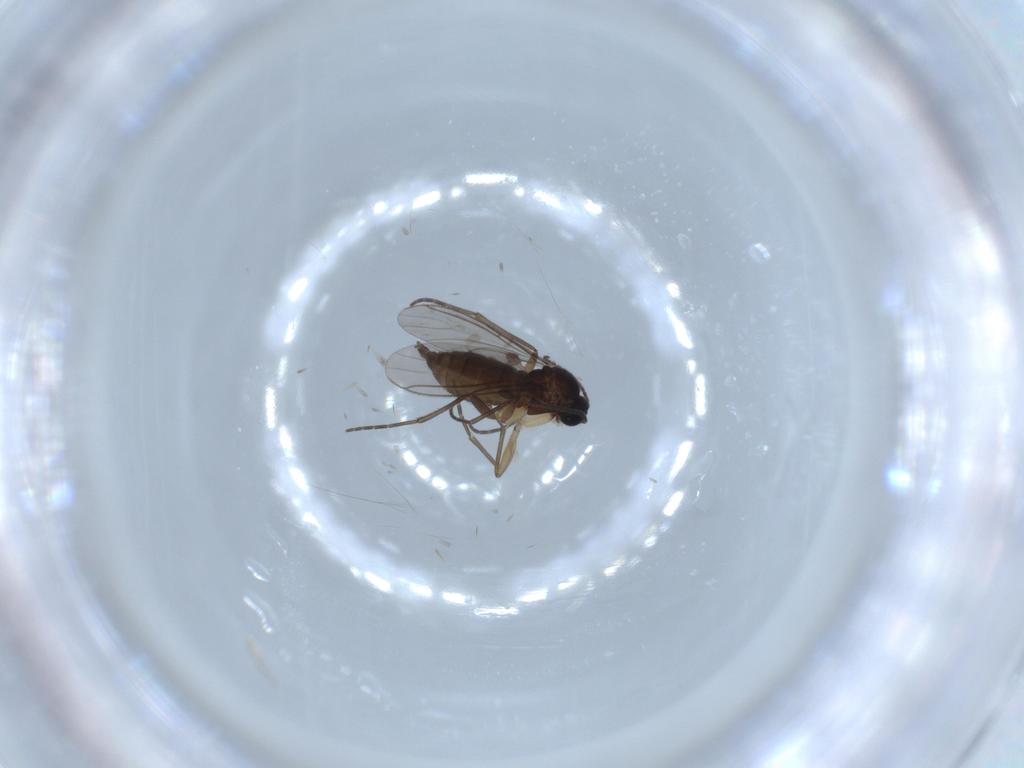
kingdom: Animalia
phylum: Arthropoda
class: Insecta
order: Diptera
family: Sciaridae
